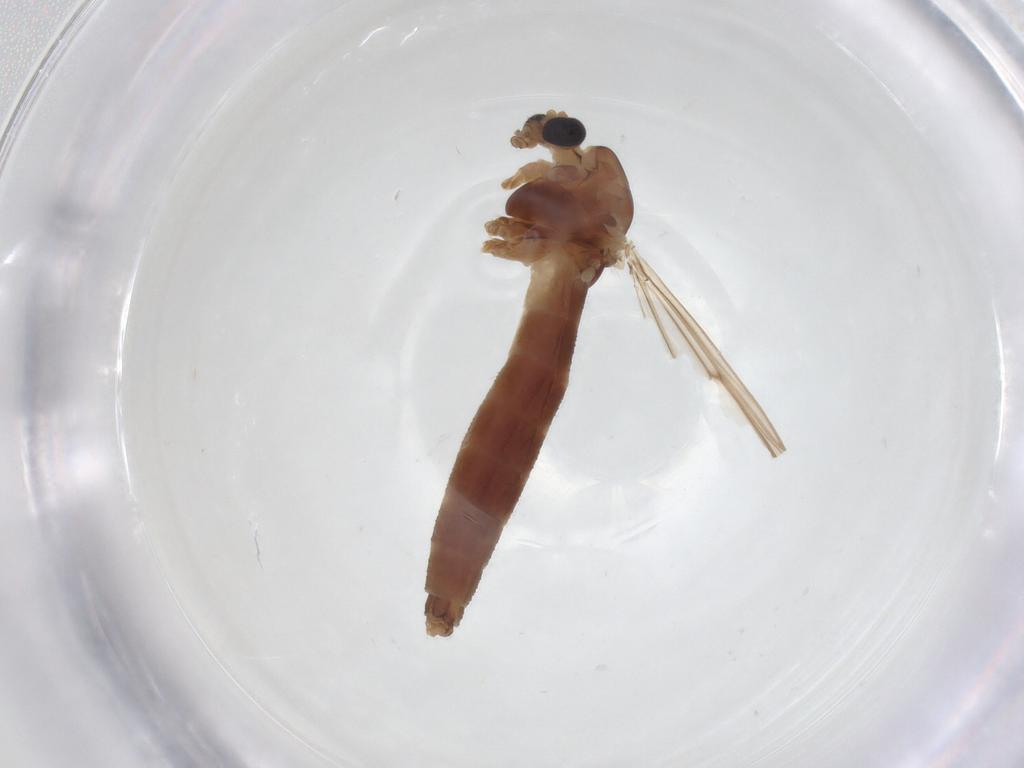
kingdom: Animalia
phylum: Arthropoda
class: Insecta
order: Diptera
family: Chironomidae
